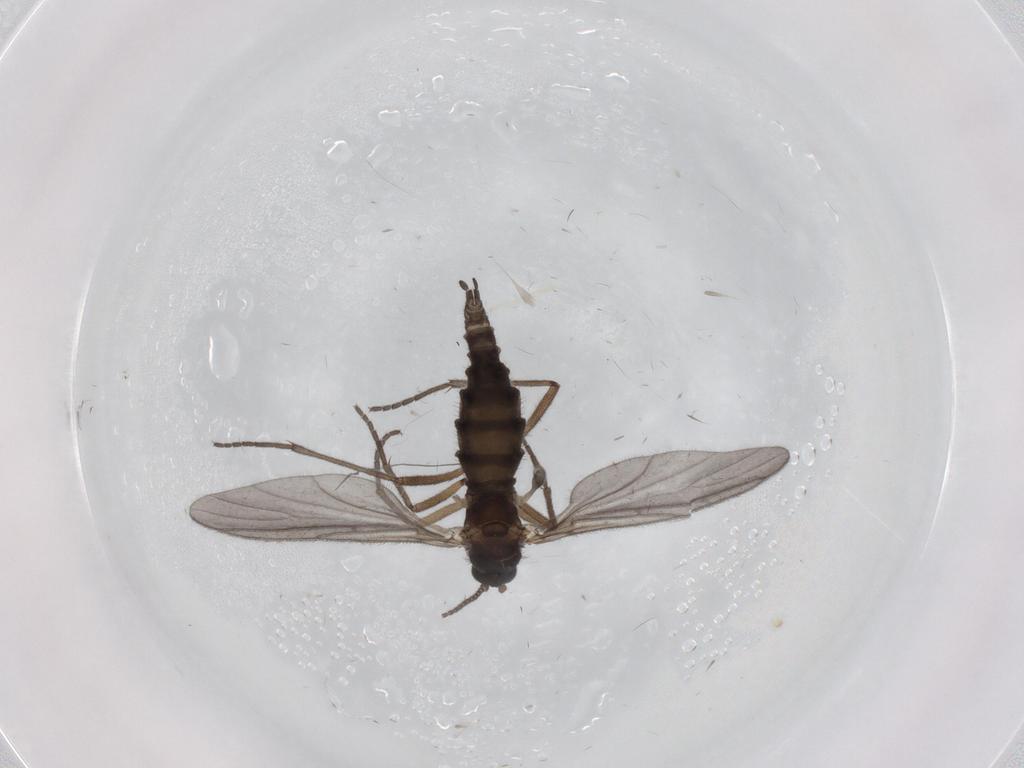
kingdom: Animalia
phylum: Arthropoda
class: Insecta
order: Diptera
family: Sciaridae
